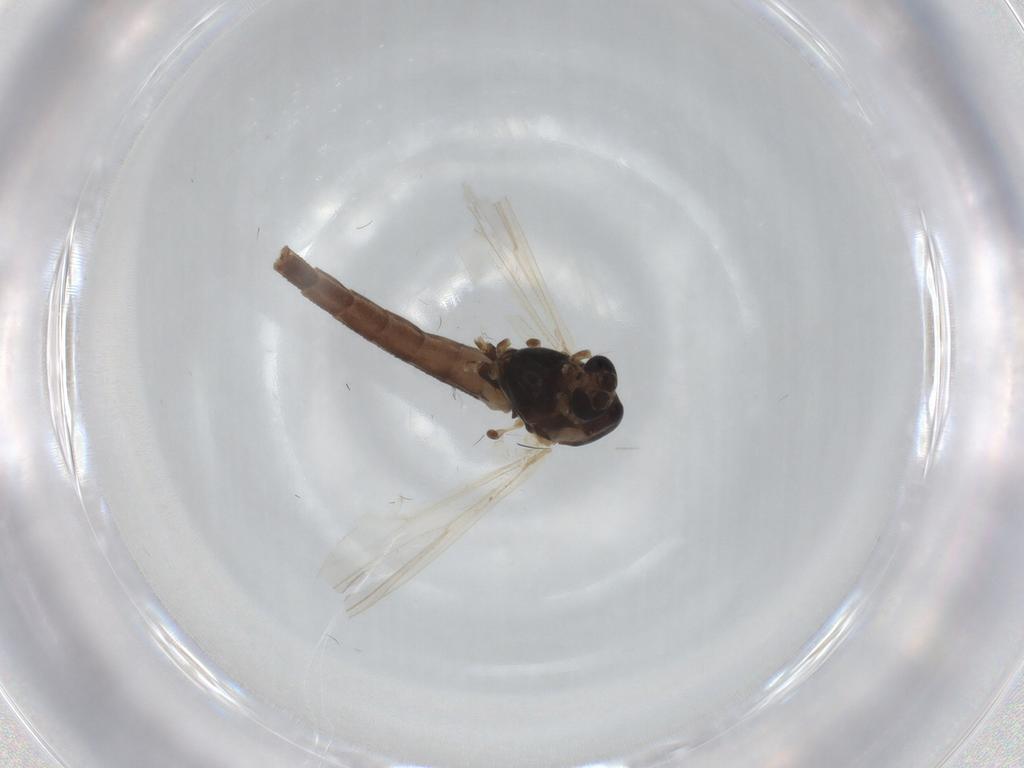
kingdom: Animalia
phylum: Arthropoda
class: Insecta
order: Diptera
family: Chironomidae
